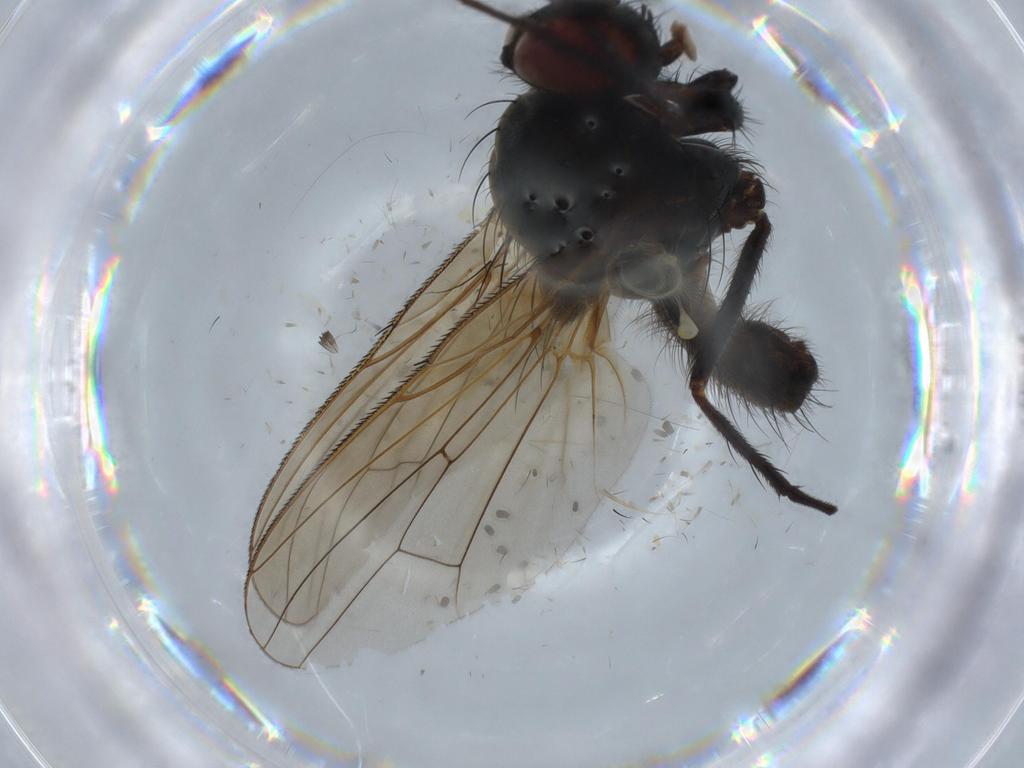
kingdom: Animalia
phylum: Arthropoda
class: Insecta
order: Diptera
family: Anthomyiidae
